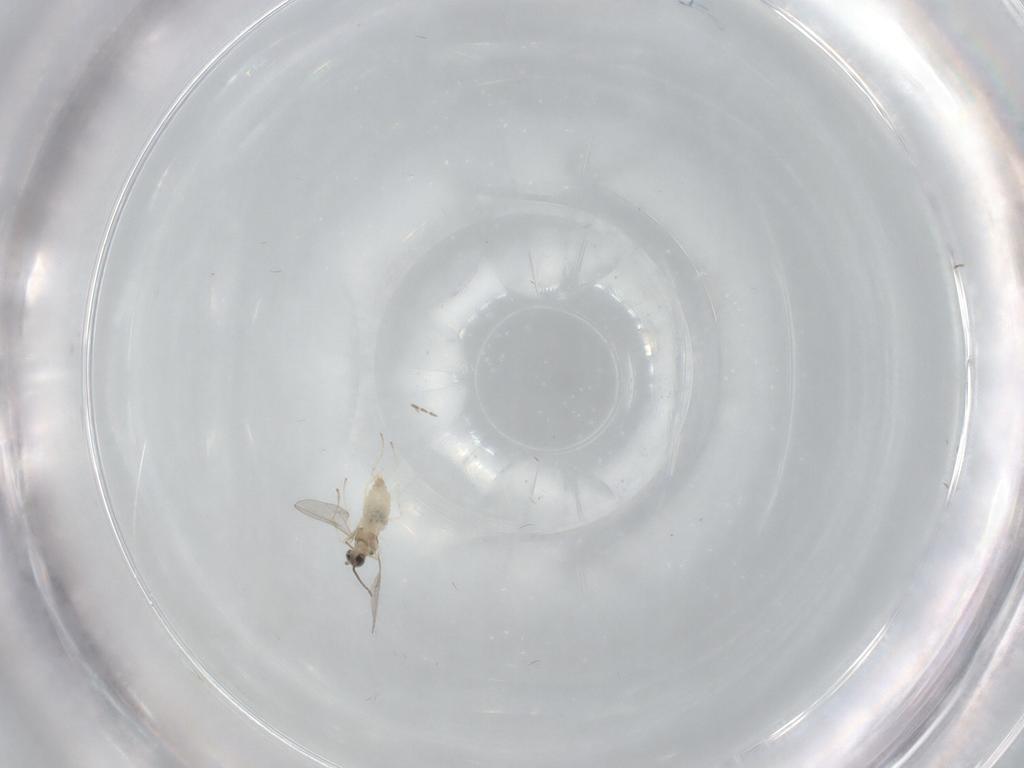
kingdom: Animalia
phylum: Arthropoda
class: Insecta
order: Diptera
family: Cecidomyiidae
